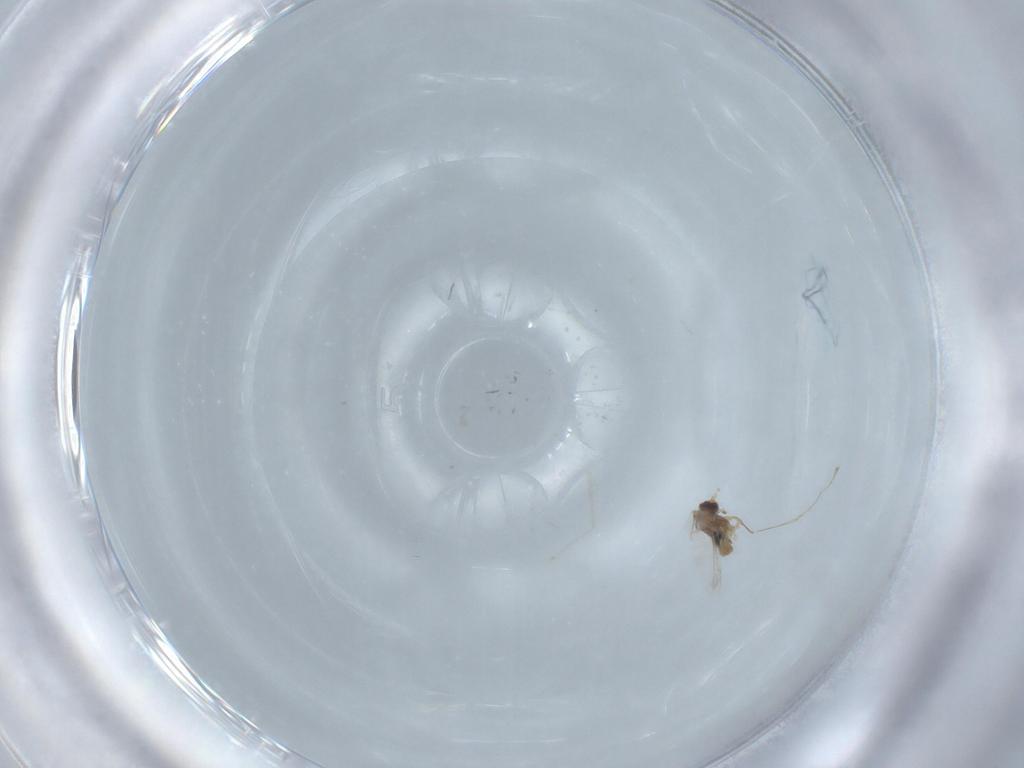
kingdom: Animalia
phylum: Arthropoda
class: Insecta
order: Diptera
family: Cecidomyiidae
